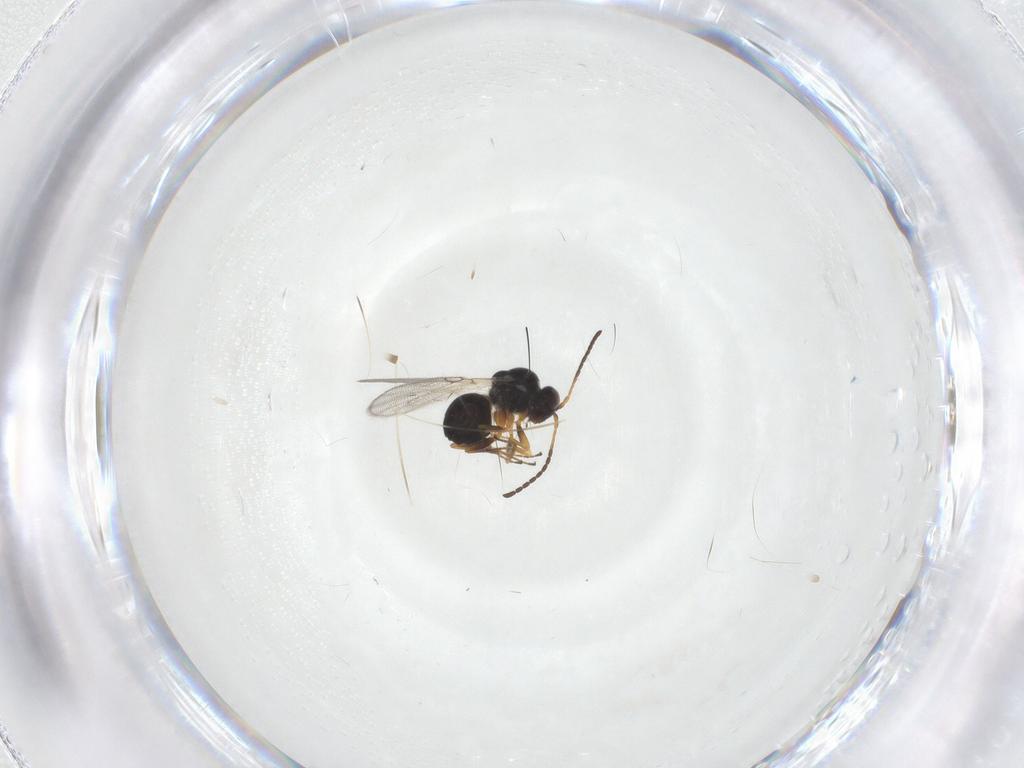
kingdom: Animalia
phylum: Arthropoda
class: Insecta
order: Hymenoptera
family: Figitidae
